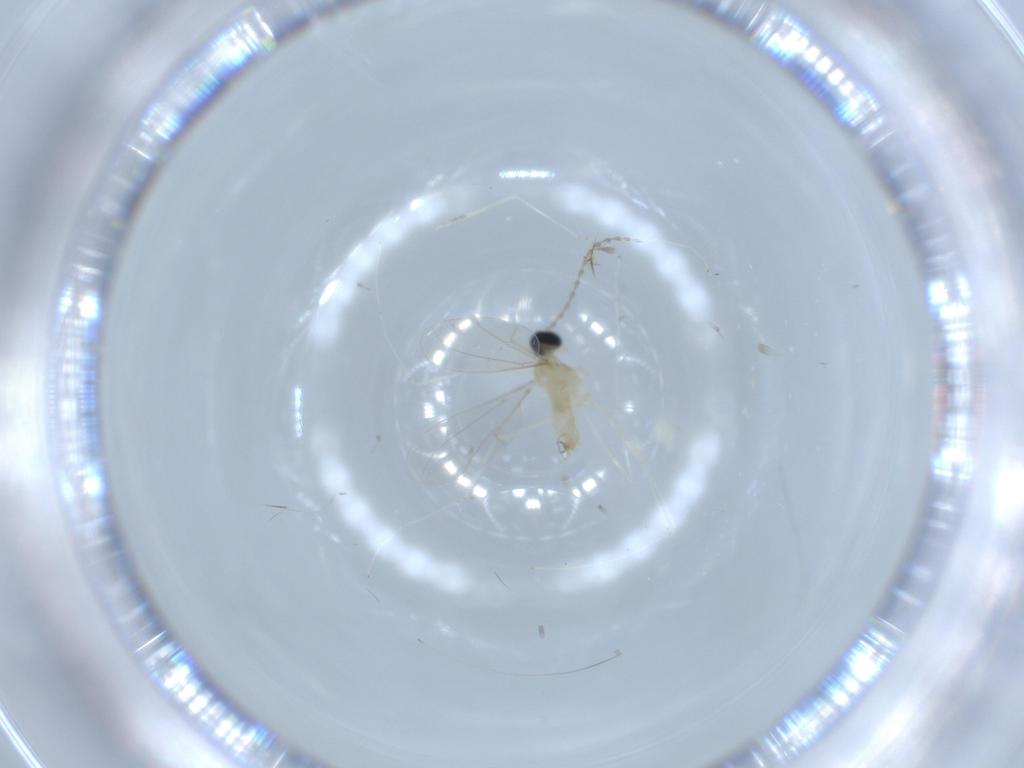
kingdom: Animalia
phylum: Arthropoda
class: Insecta
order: Diptera
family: Cecidomyiidae
